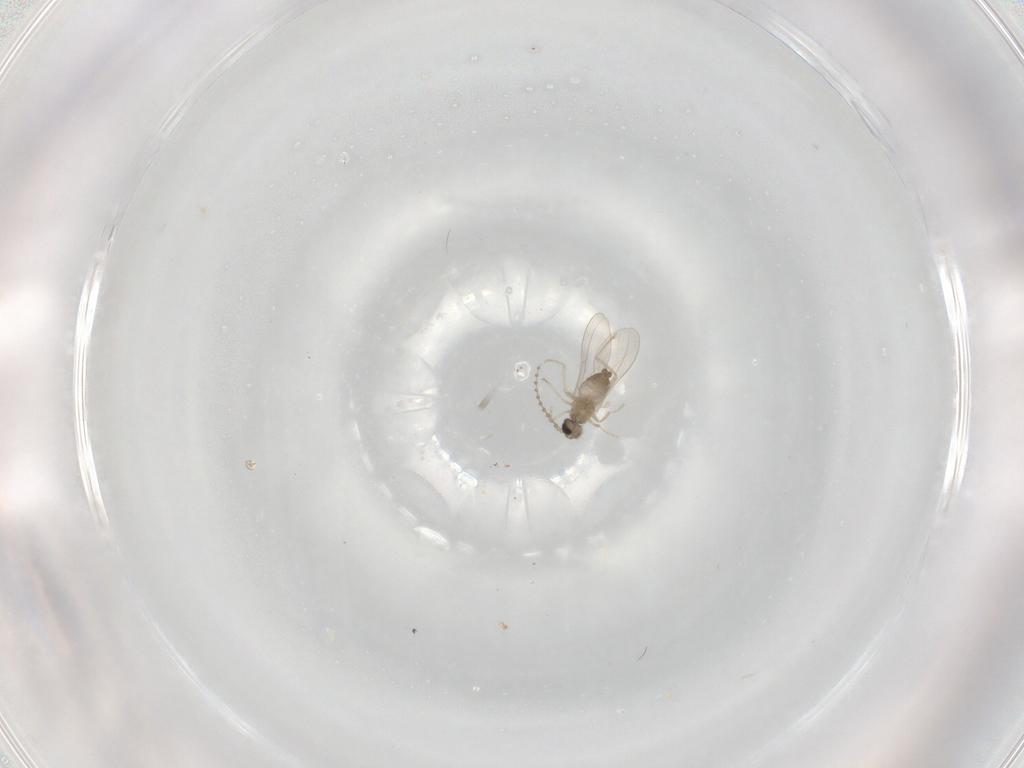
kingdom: Animalia
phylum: Arthropoda
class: Insecta
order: Diptera
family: Cecidomyiidae
